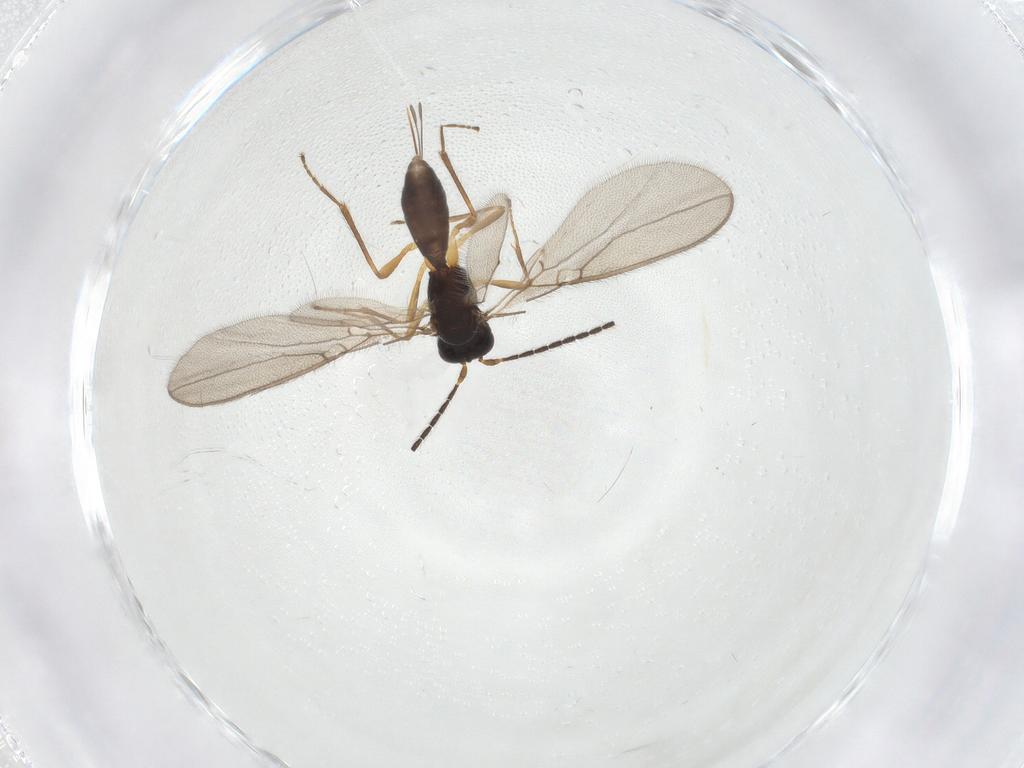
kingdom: Animalia
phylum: Arthropoda
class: Insecta
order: Hymenoptera
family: Braconidae
